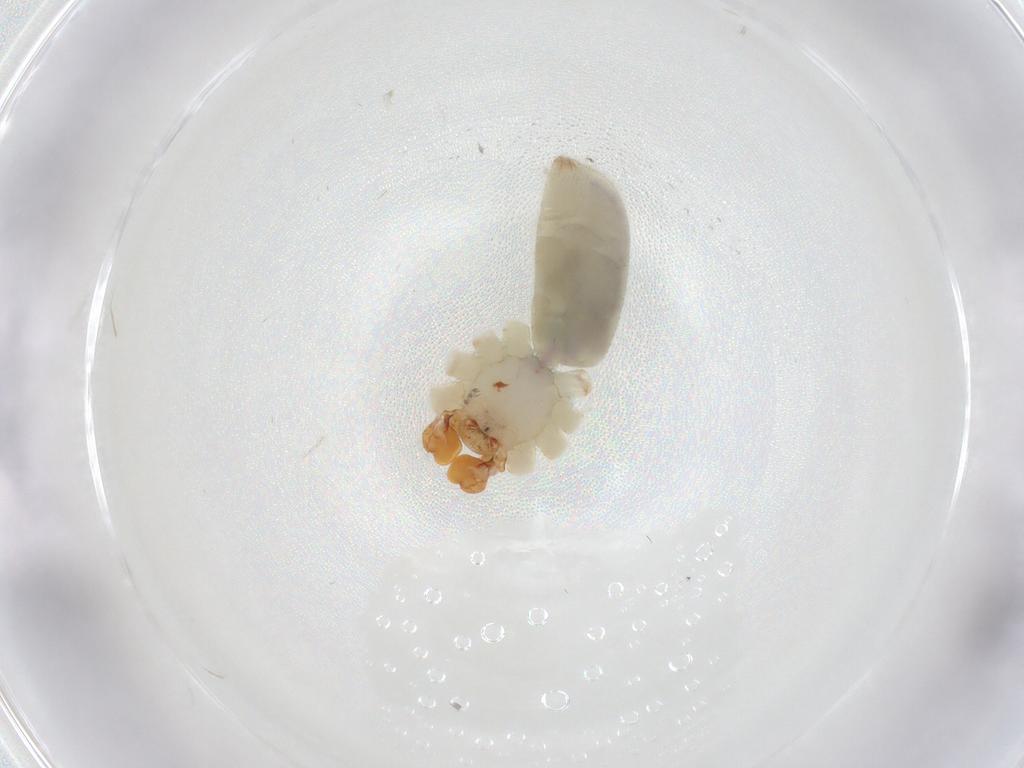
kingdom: Animalia
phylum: Arthropoda
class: Arachnida
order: Araneae
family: Pholcidae
